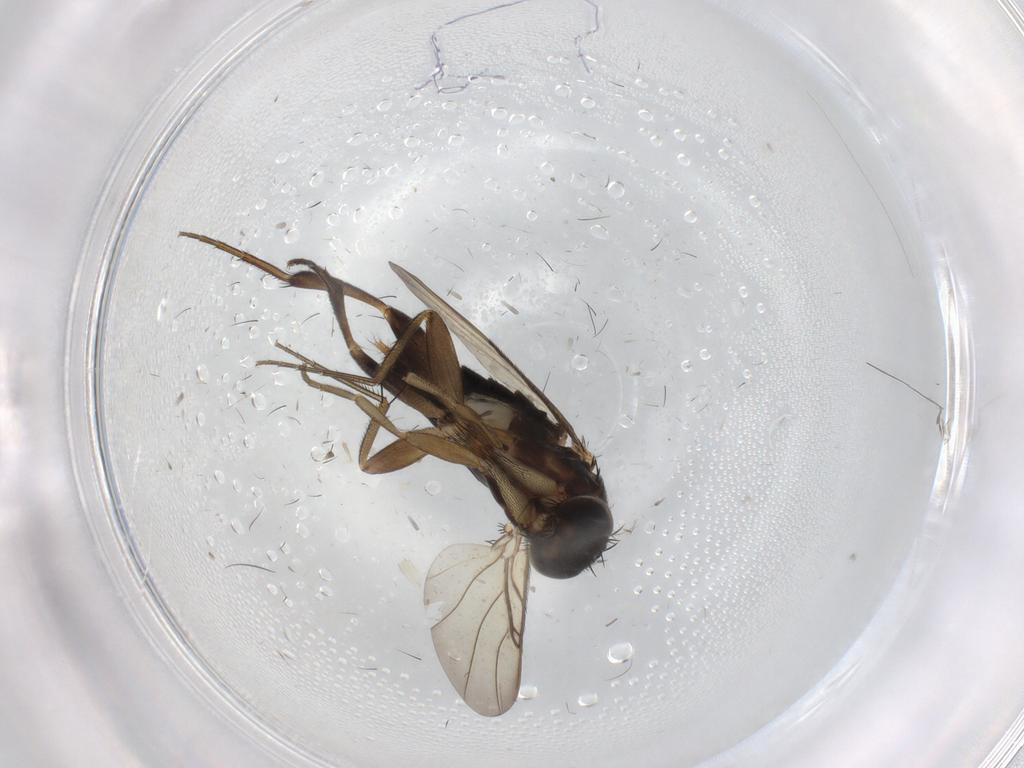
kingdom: Animalia
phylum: Arthropoda
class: Insecta
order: Diptera
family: Phoridae
